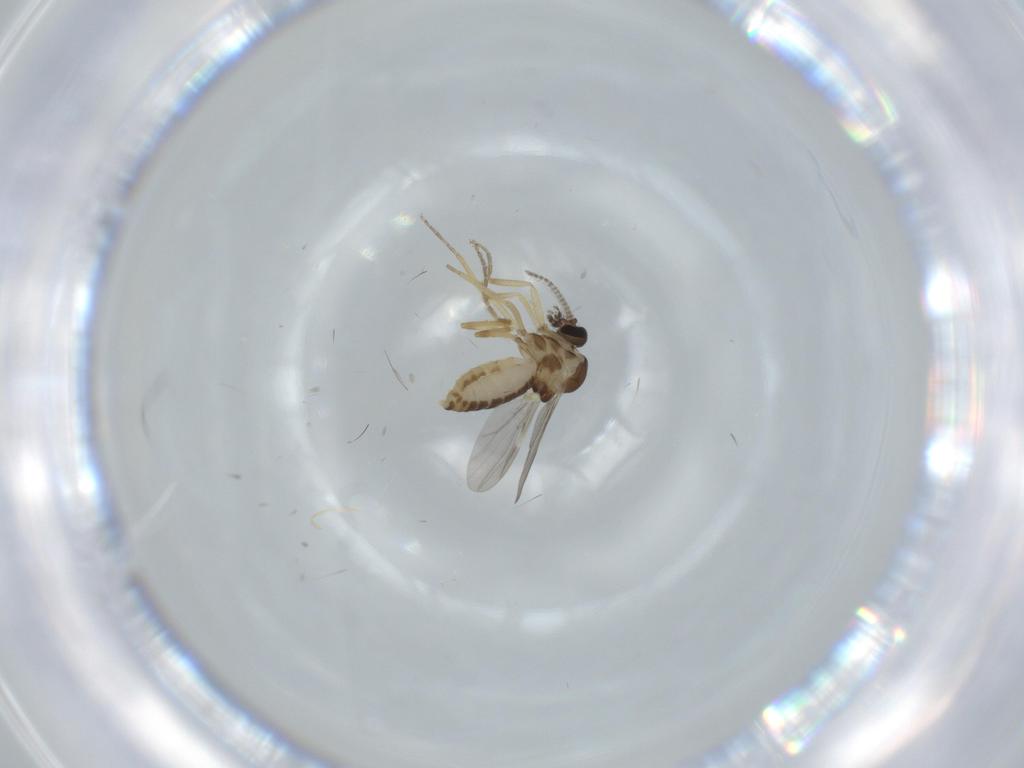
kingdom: Animalia
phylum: Arthropoda
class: Insecta
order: Diptera
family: Ceratopogonidae
